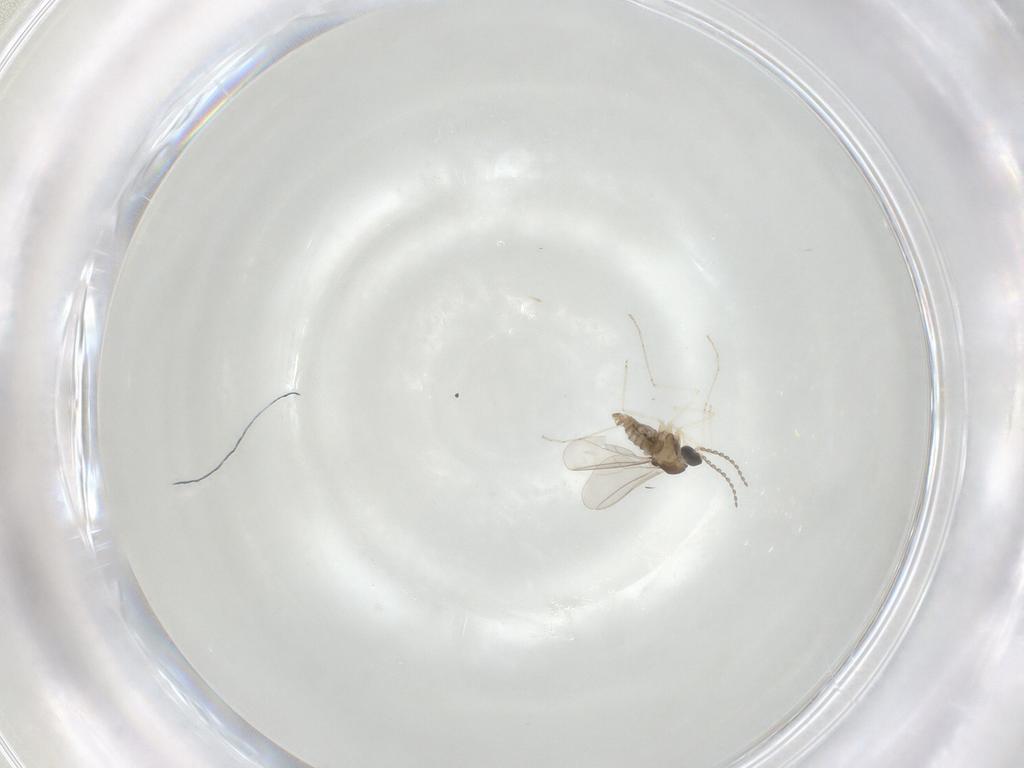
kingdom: Animalia
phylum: Arthropoda
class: Insecta
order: Diptera
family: Cecidomyiidae
